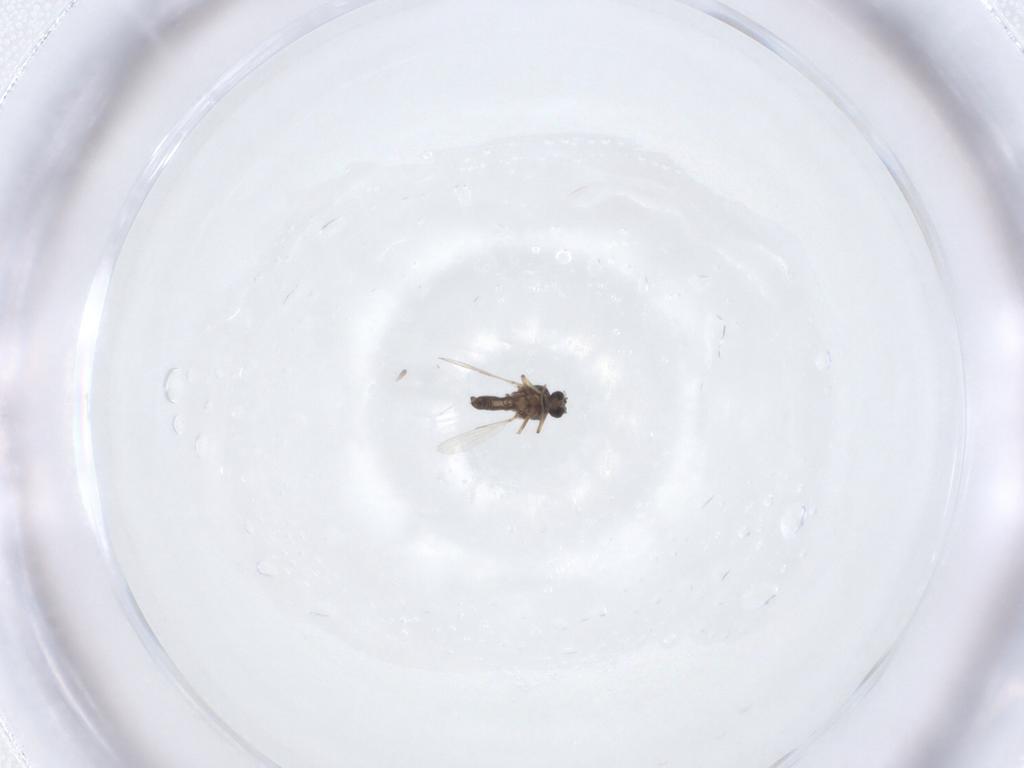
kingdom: Animalia
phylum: Arthropoda
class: Insecta
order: Diptera
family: Ceratopogonidae
